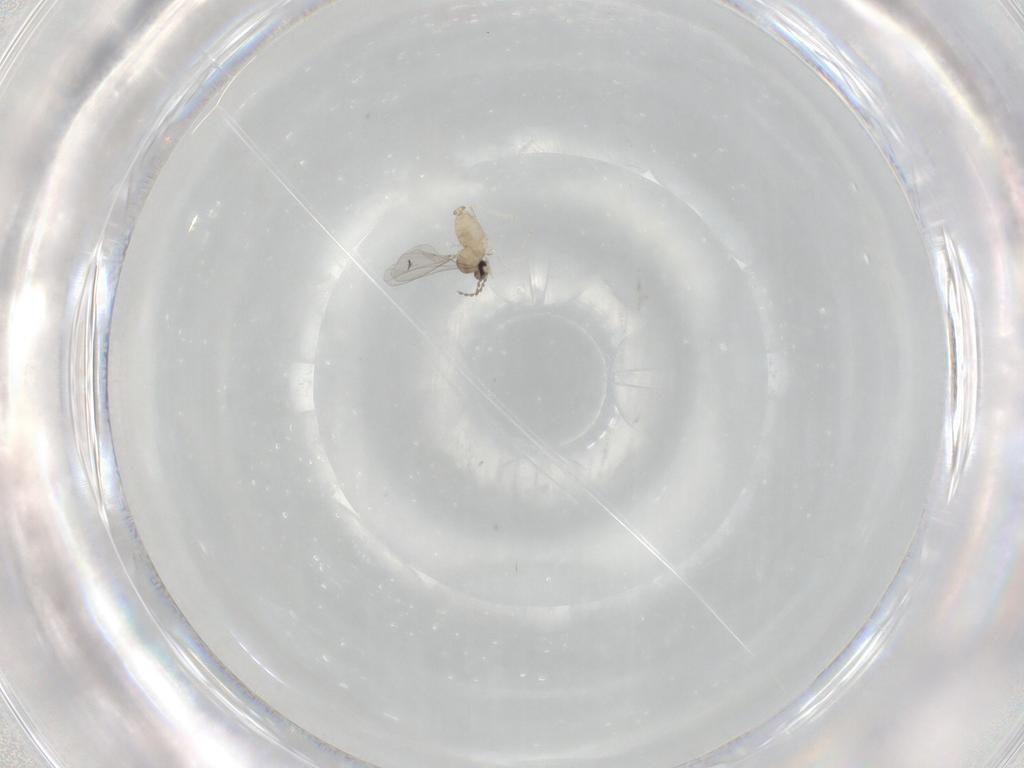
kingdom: Animalia
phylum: Arthropoda
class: Insecta
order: Diptera
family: Cecidomyiidae
